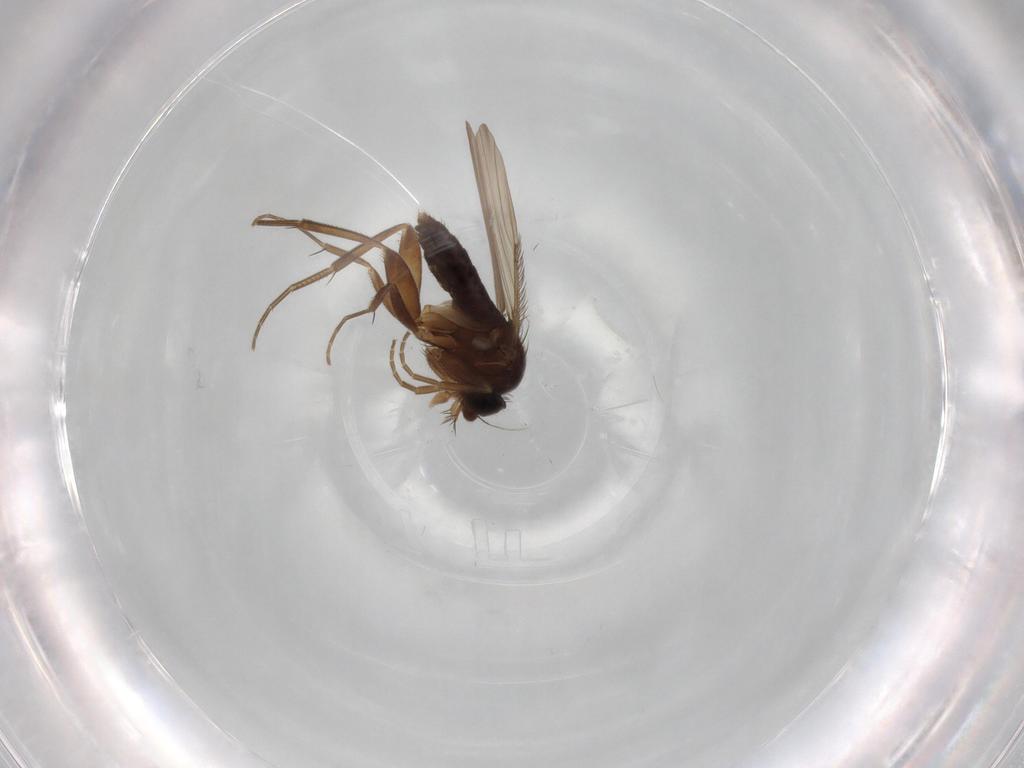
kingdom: Animalia
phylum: Arthropoda
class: Insecta
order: Diptera
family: Phoridae
